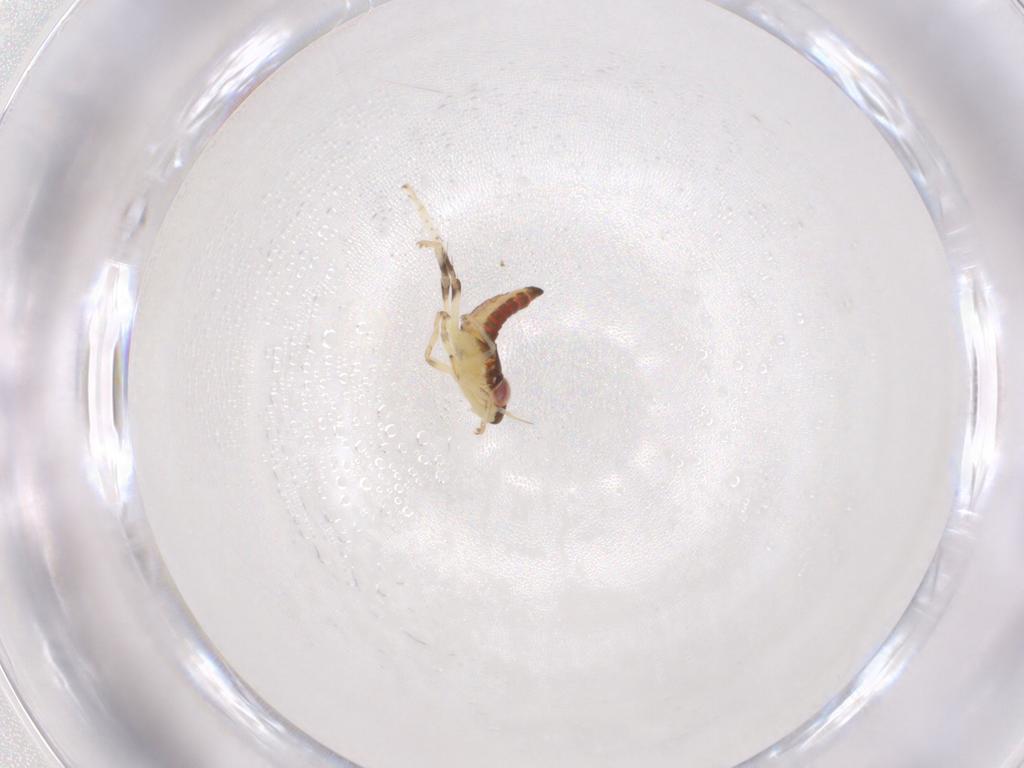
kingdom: Animalia
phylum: Arthropoda
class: Insecta
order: Hemiptera
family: Cicadellidae
